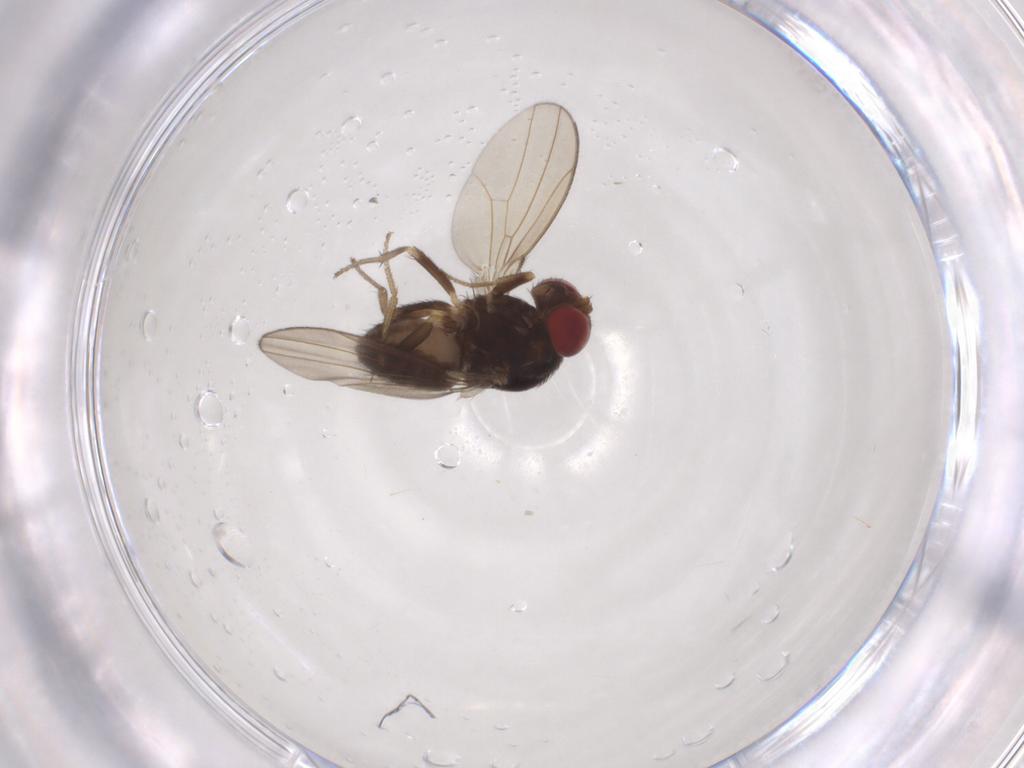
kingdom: Animalia
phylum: Arthropoda
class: Insecta
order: Diptera
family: Drosophilidae
